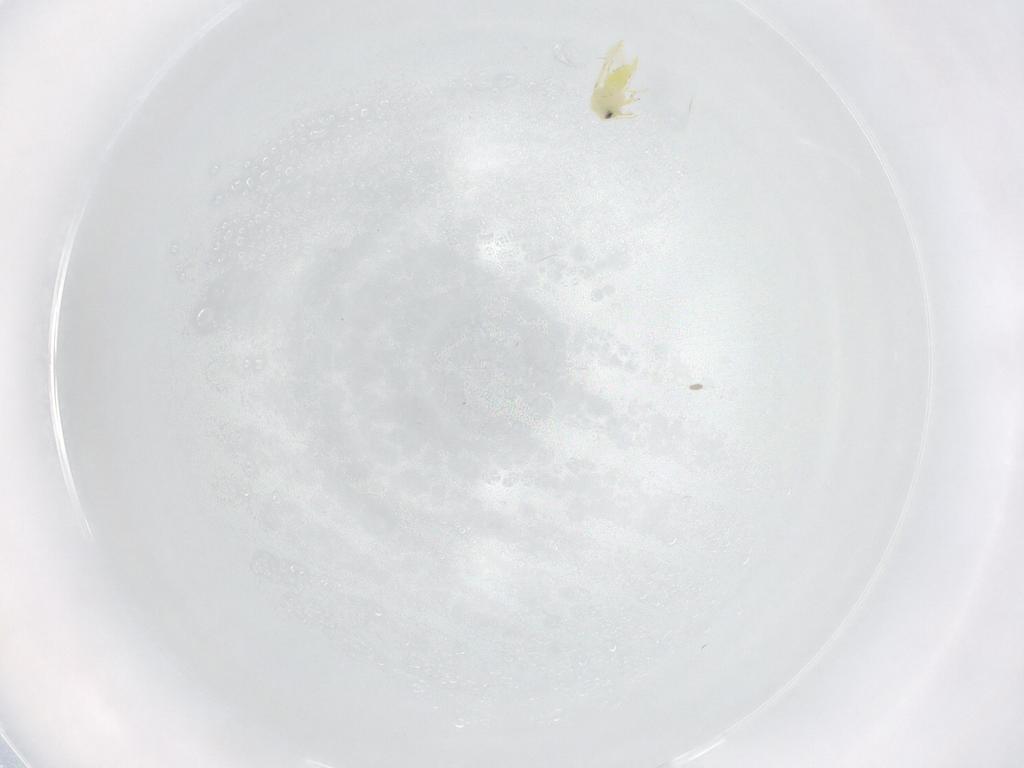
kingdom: Animalia
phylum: Arthropoda
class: Insecta
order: Hemiptera
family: Aleyrodidae
